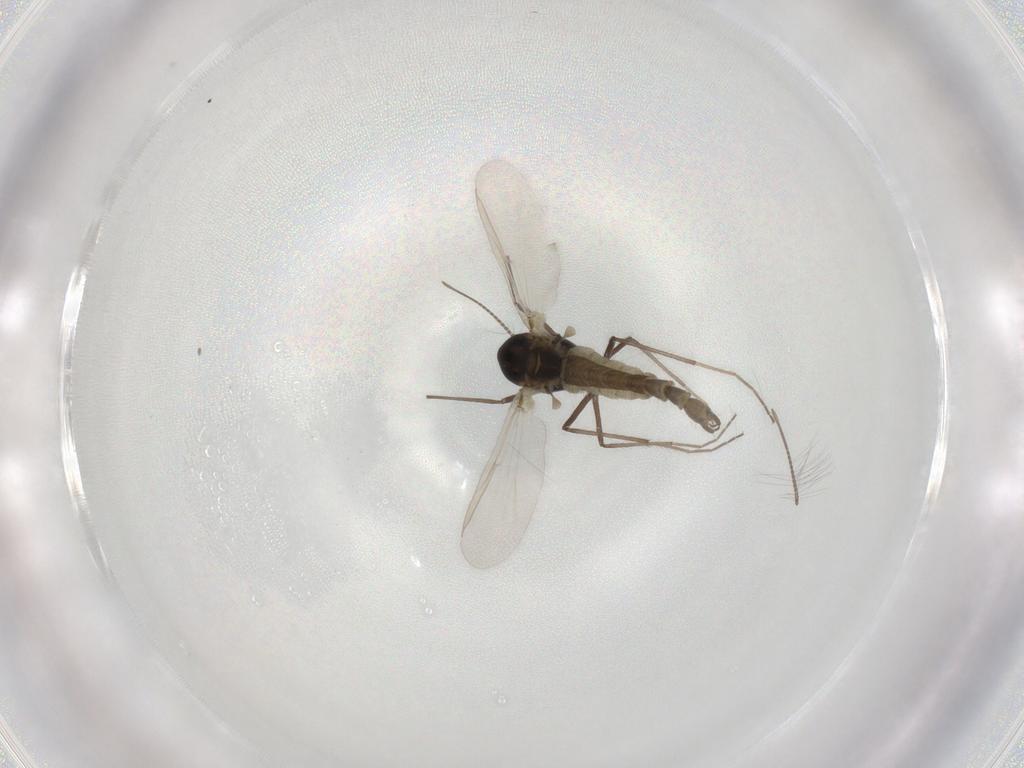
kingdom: Animalia
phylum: Arthropoda
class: Insecta
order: Diptera
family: Chironomidae
